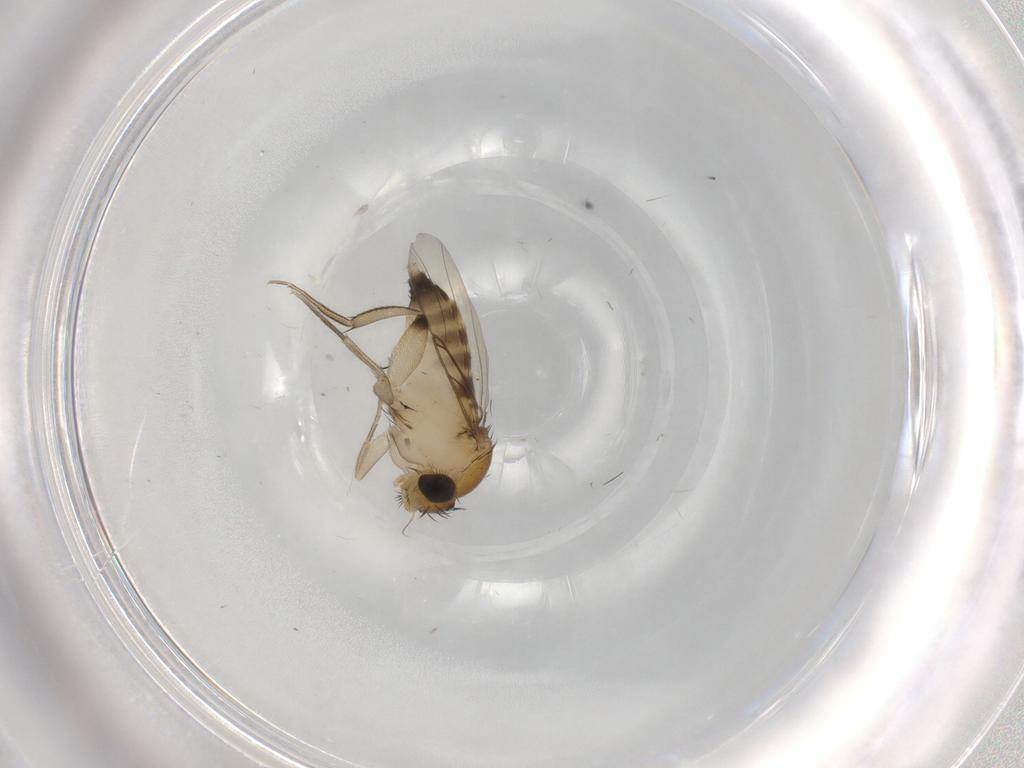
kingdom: Animalia
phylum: Arthropoda
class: Insecta
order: Diptera
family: Phoridae
